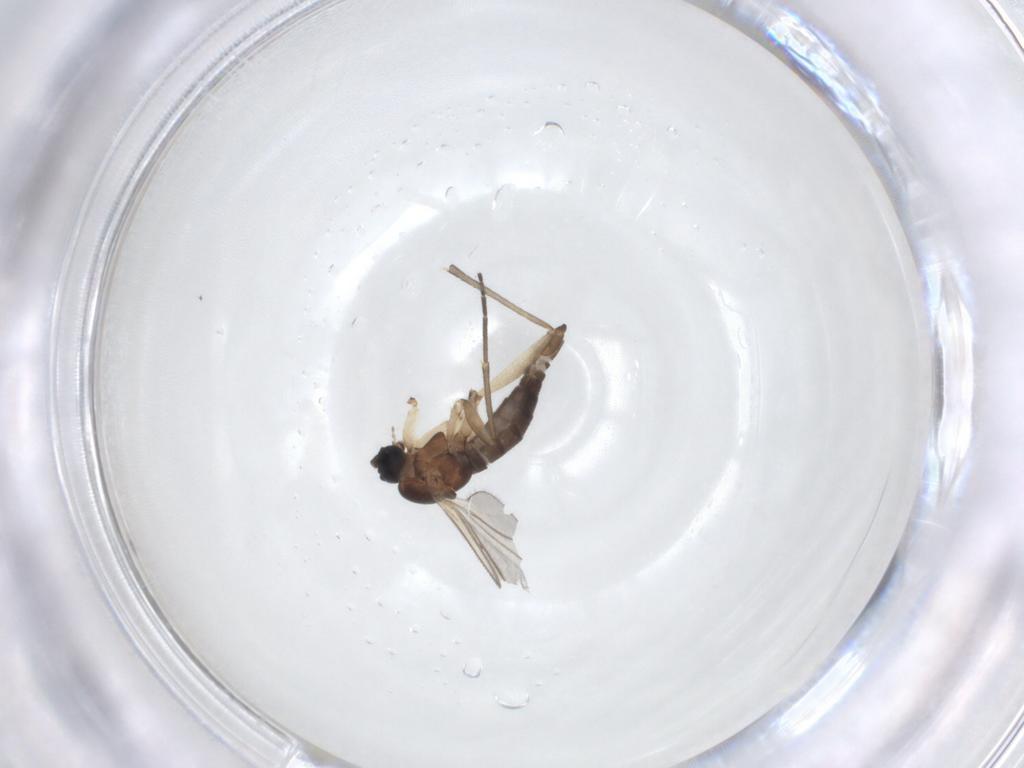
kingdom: Animalia
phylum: Arthropoda
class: Insecta
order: Diptera
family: Sciaridae
